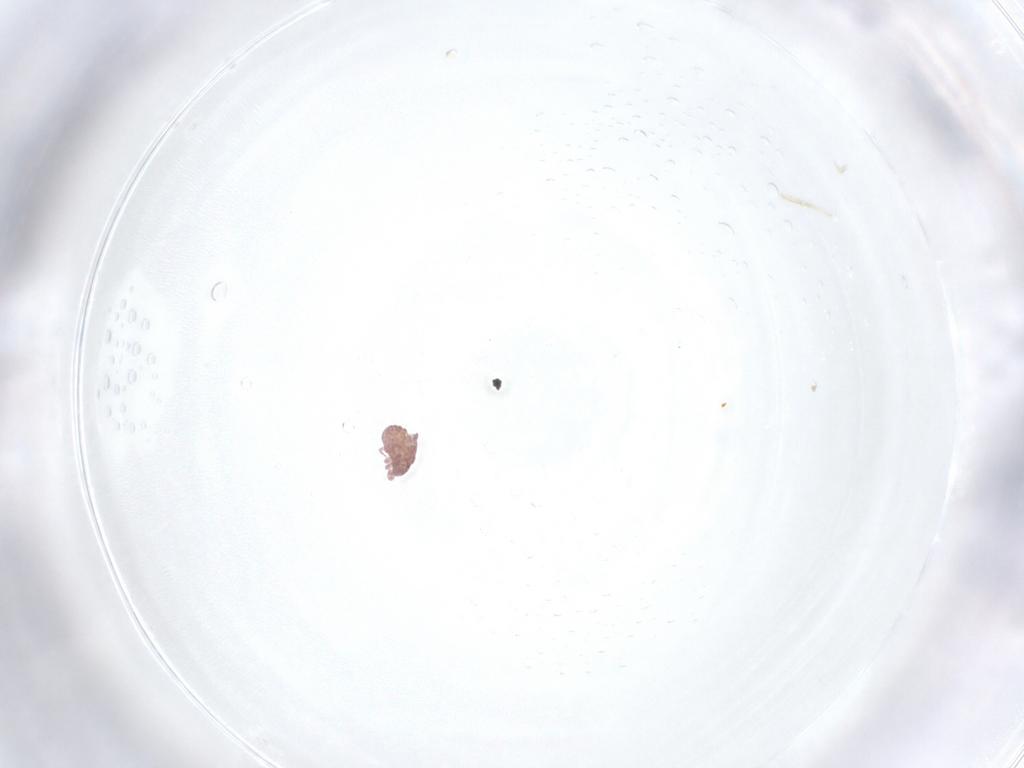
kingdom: Animalia
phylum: Arthropoda
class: Arachnida
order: Sarcoptiformes
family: Alycidae
